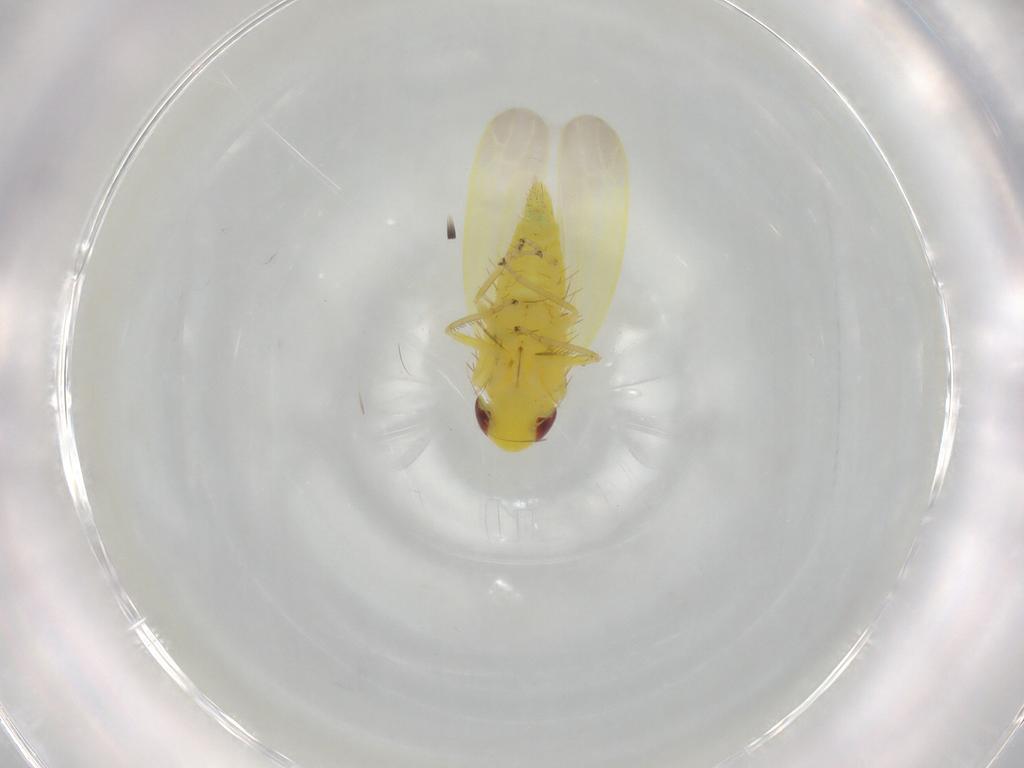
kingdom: Animalia
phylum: Arthropoda
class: Insecta
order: Hemiptera
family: Cicadellidae
